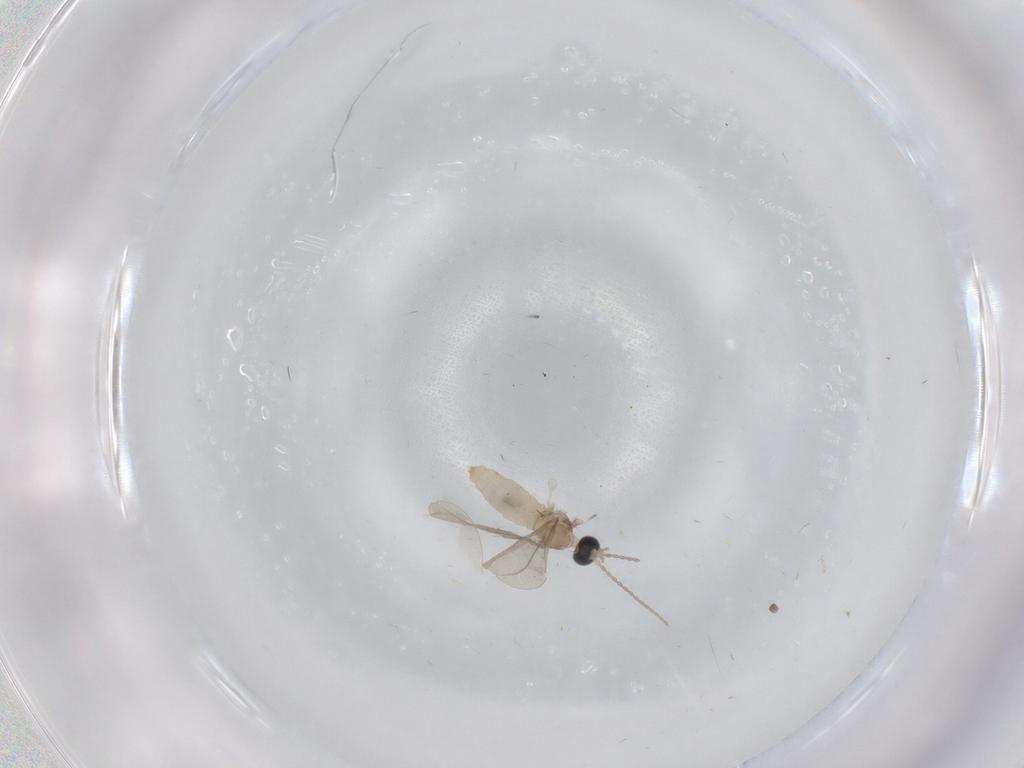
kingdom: Animalia
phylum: Arthropoda
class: Insecta
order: Diptera
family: Cecidomyiidae
